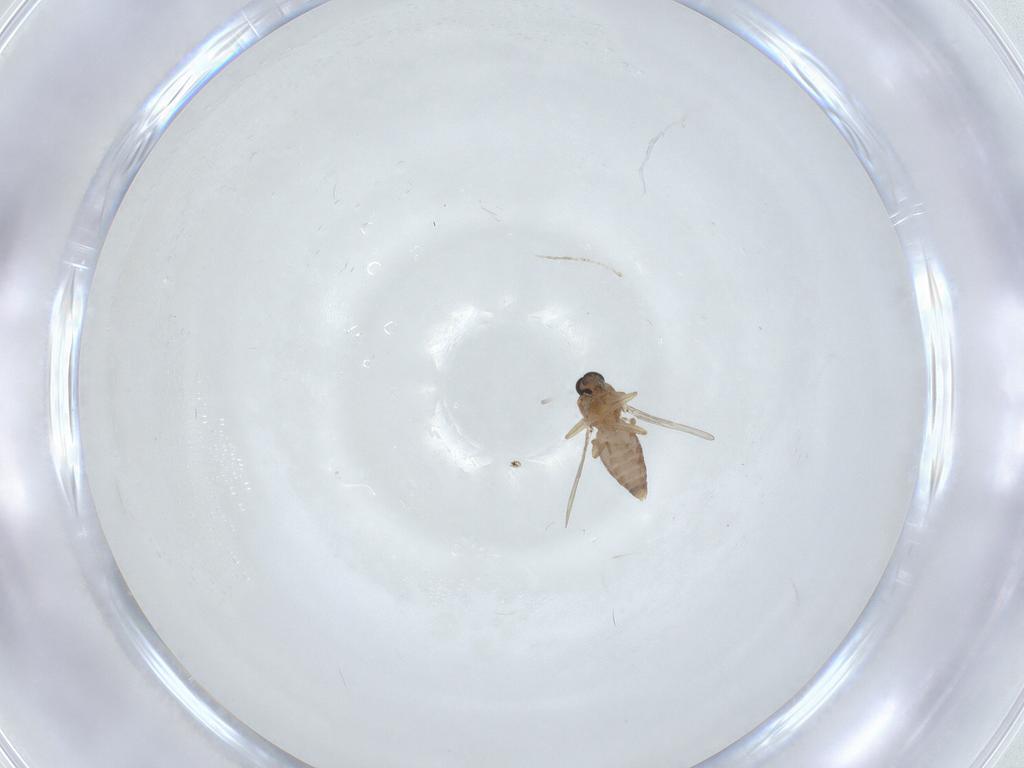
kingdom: Animalia
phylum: Arthropoda
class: Insecta
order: Diptera
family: Ceratopogonidae
